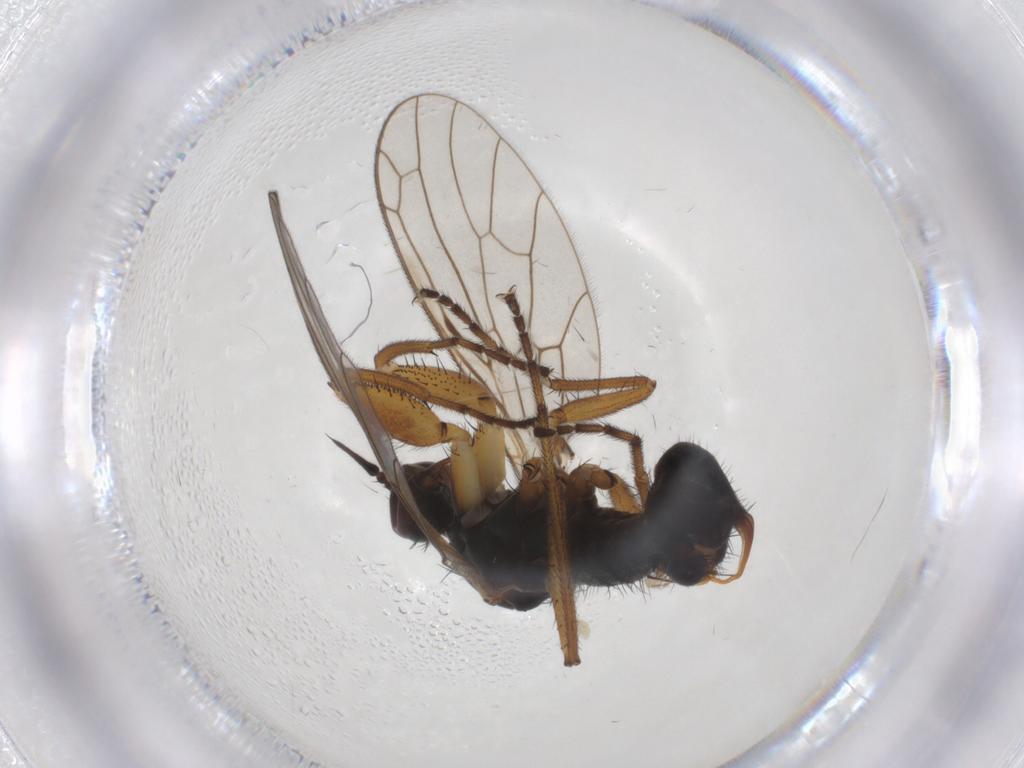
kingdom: Animalia
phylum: Arthropoda
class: Insecta
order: Diptera
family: Empididae
